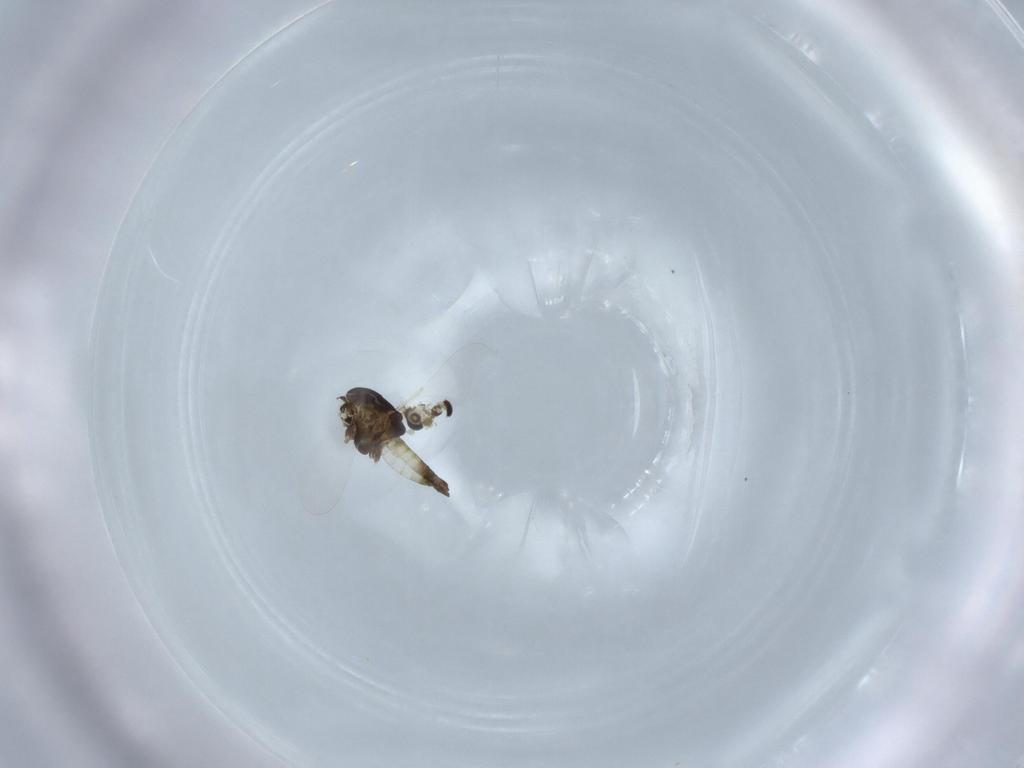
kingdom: Animalia
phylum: Arthropoda
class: Insecta
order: Diptera
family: Chironomidae
